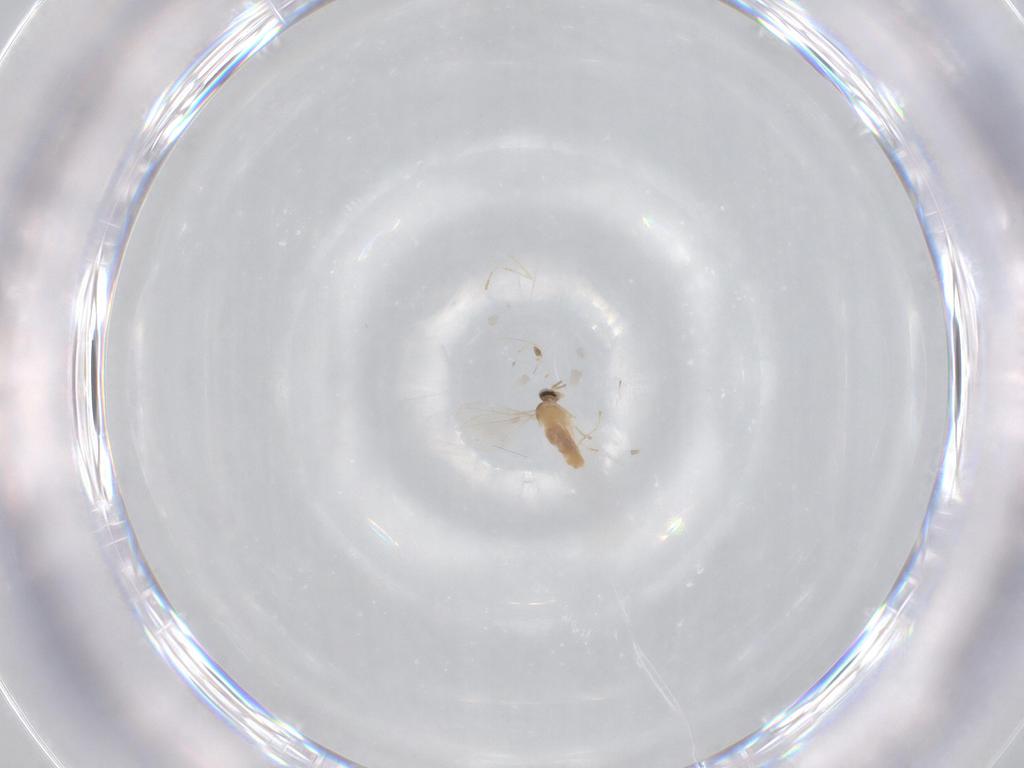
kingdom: Animalia
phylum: Arthropoda
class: Insecta
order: Diptera
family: Cecidomyiidae
